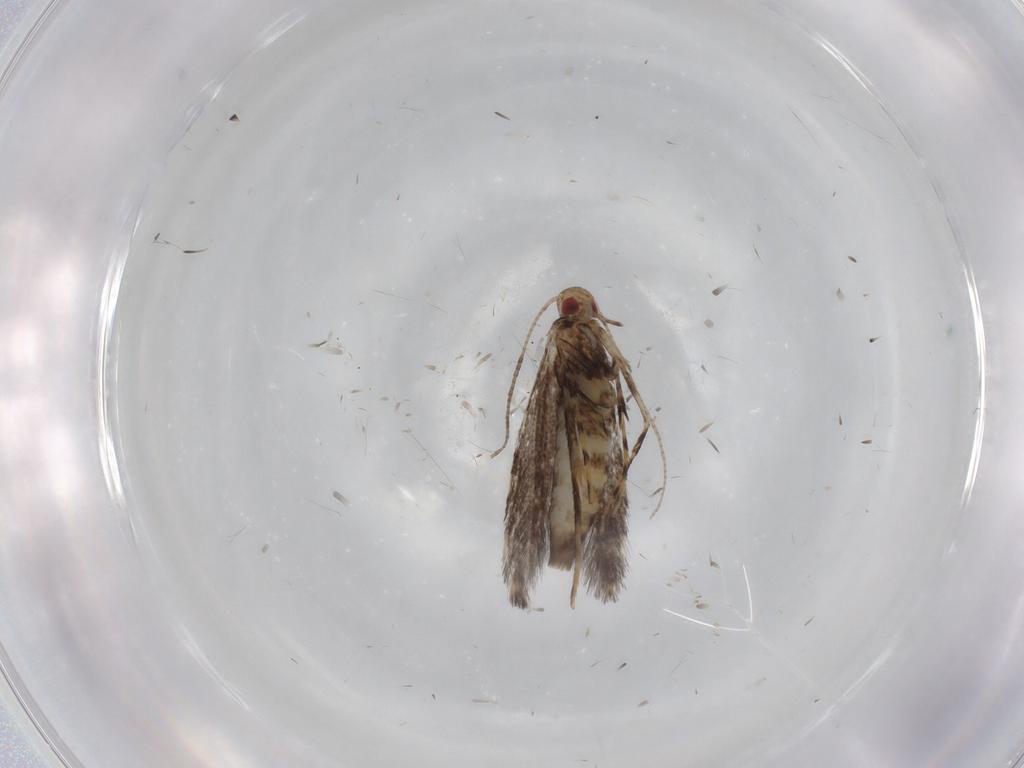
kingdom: Animalia
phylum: Arthropoda
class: Insecta
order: Lepidoptera
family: Gracillariidae
